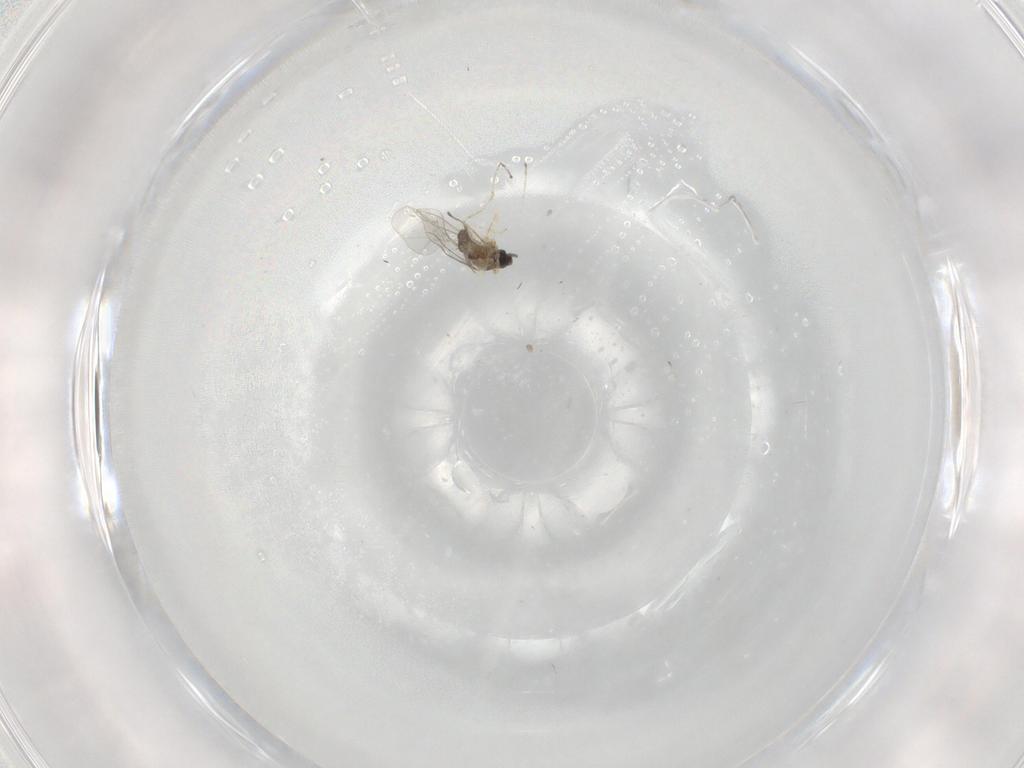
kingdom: Animalia
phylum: Arthropoda
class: Insecta
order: Diptera
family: Cecidomyiidae
